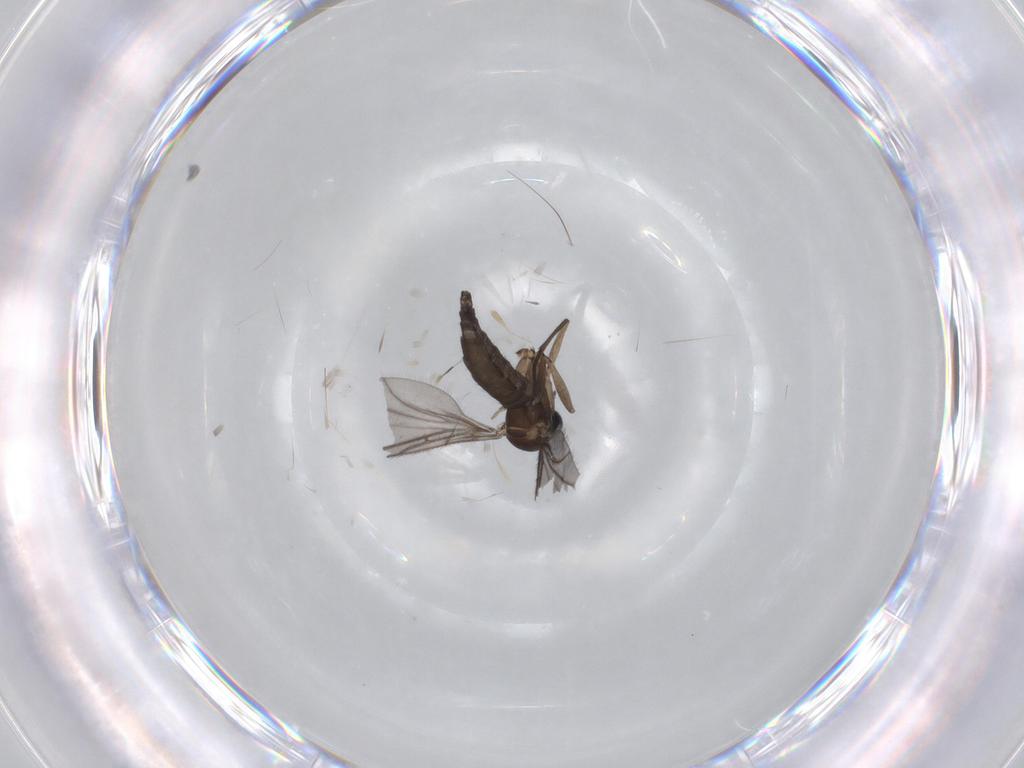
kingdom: Animalia
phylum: Arthropoda
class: Insecta
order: Diptera
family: Sciaridae
